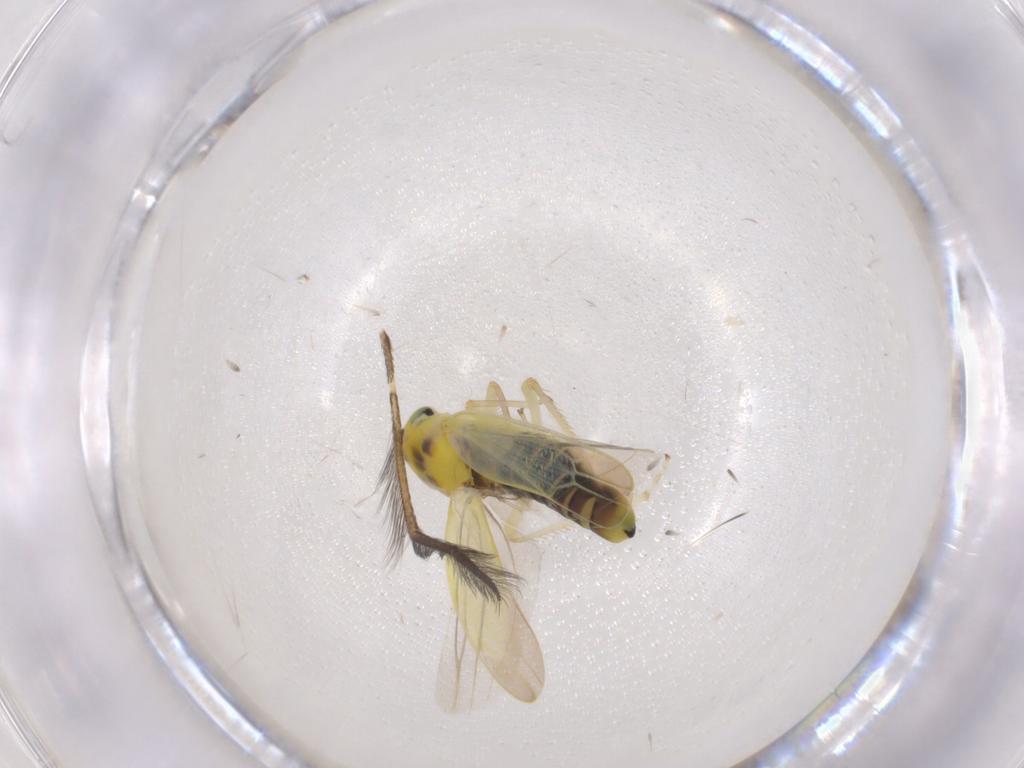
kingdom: Animalia
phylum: Arthropoda
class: Insecta
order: Hemiptera
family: Cicadellidae
